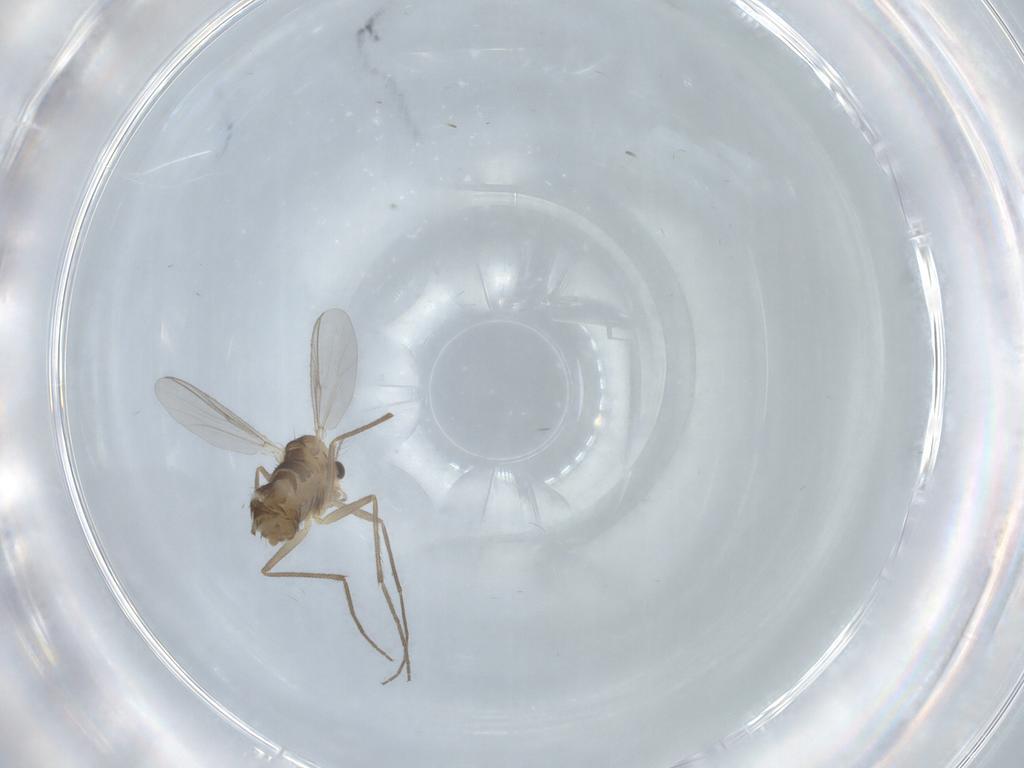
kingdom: Animalia
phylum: Arthropoda
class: Insecta
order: Diptera
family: Chironomidae
